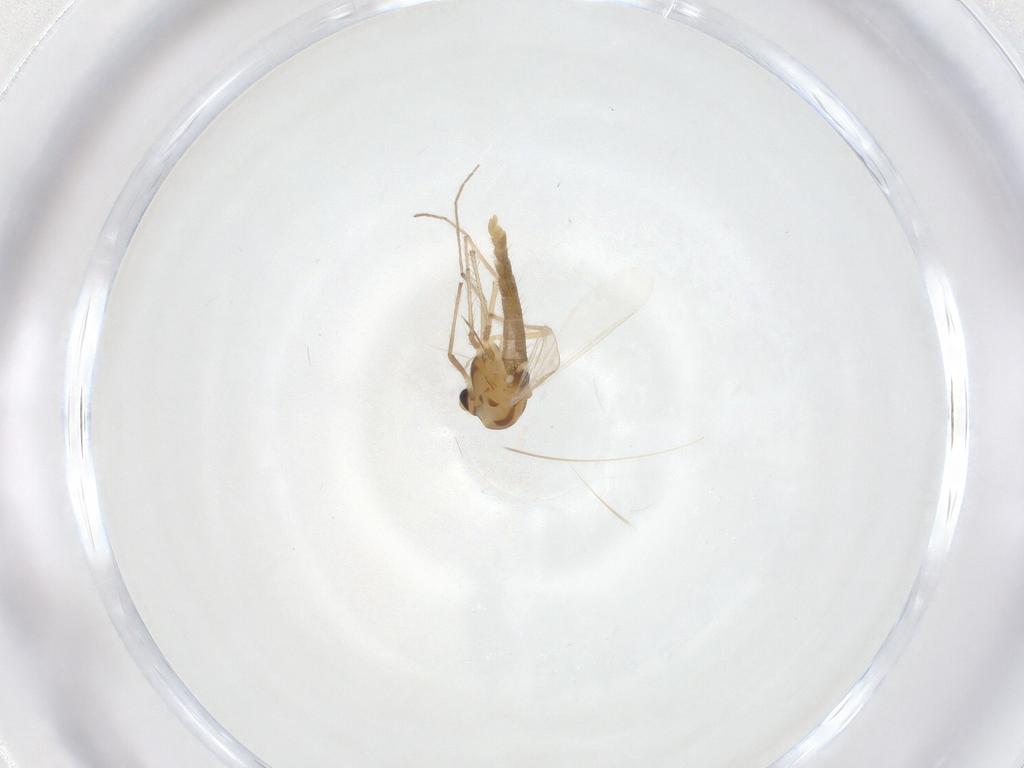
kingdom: Animalia
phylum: Arthropoda
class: Insecta
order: Diptera
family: Chironomidae
